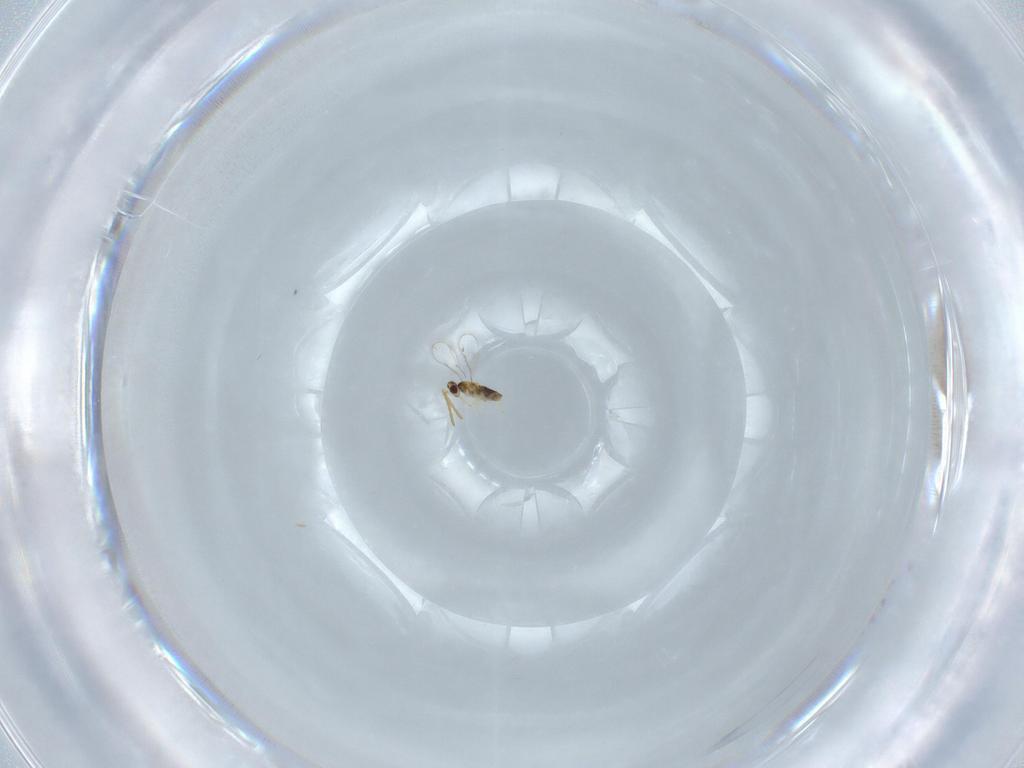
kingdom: Animalia
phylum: Arthropoda
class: Insecta
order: Hymenoptera
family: Aphelinidae
